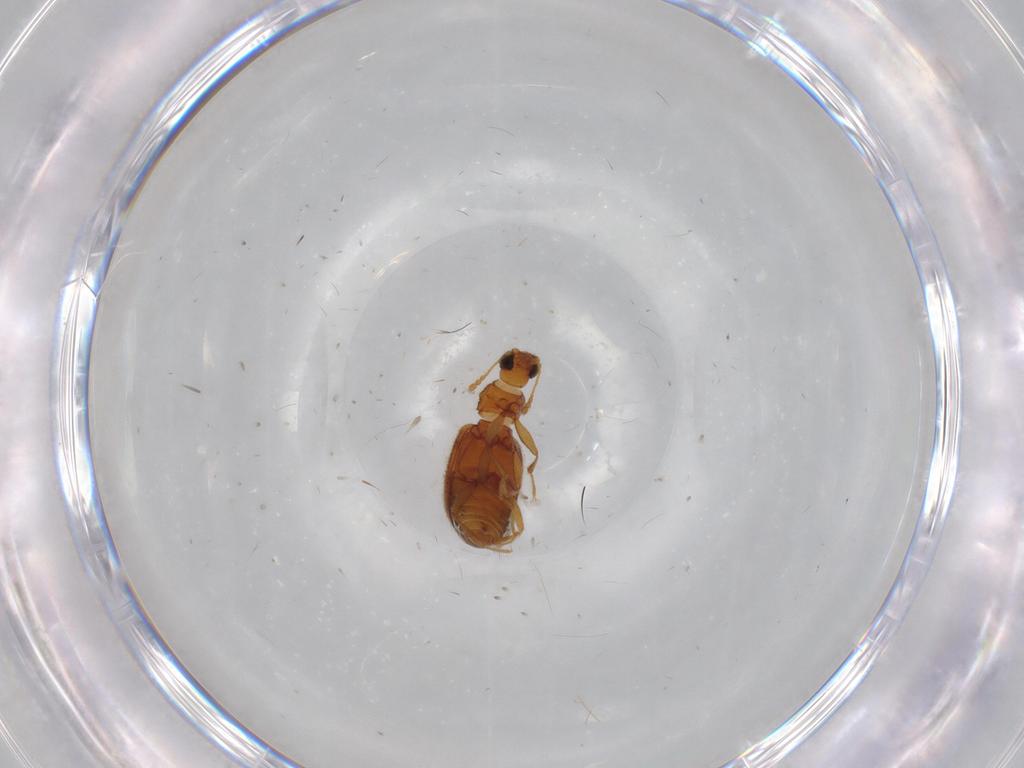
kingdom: Animalia
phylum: Arthropoda
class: Insecta
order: Coleoptera
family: Latridiidae
